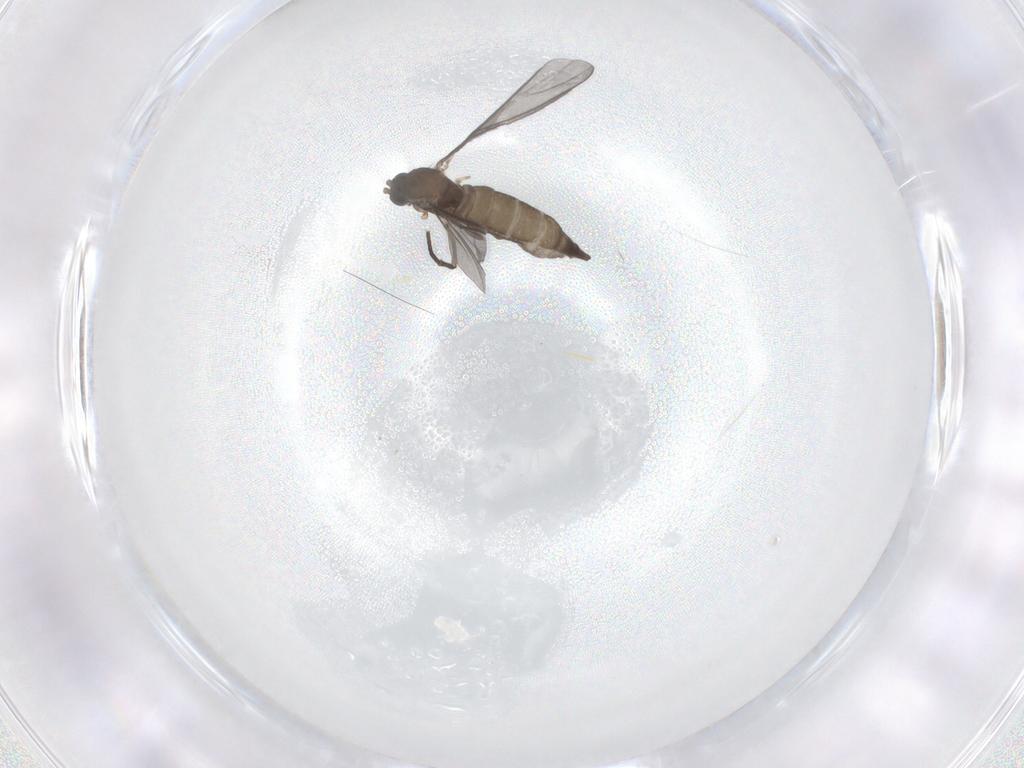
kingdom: Animalia
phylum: Arthropoda
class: Insecta
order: Diptera
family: Sciaridae
